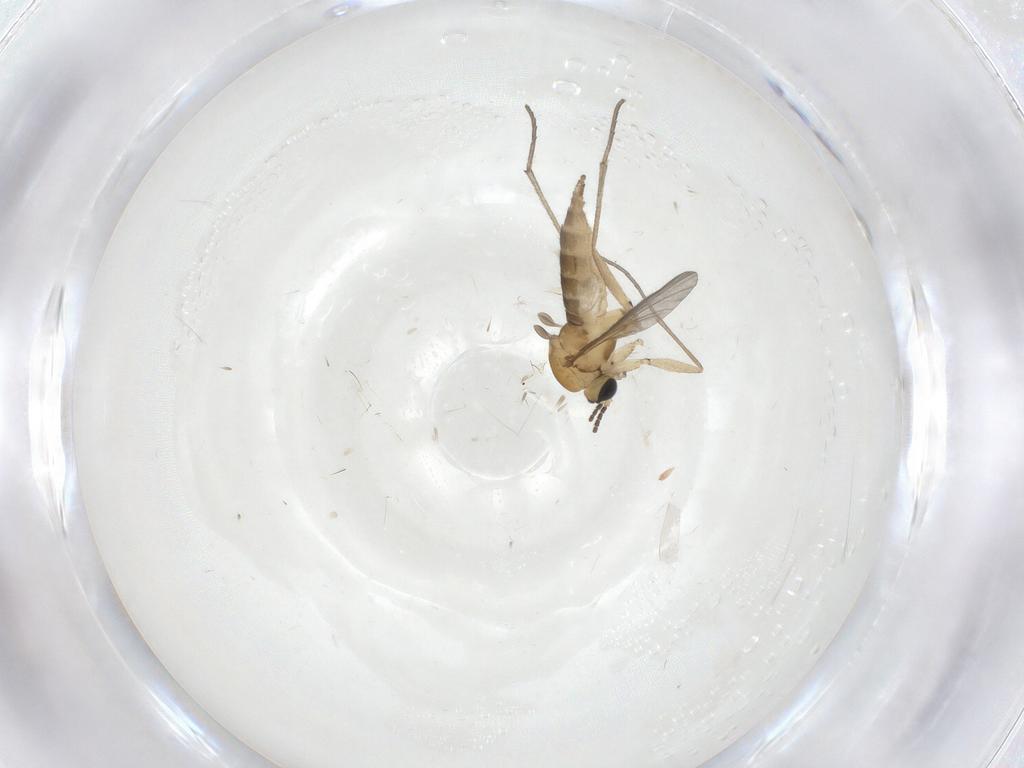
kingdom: Animalia
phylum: Arthropoda
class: Insecta
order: Diptera
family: Sciaridae
